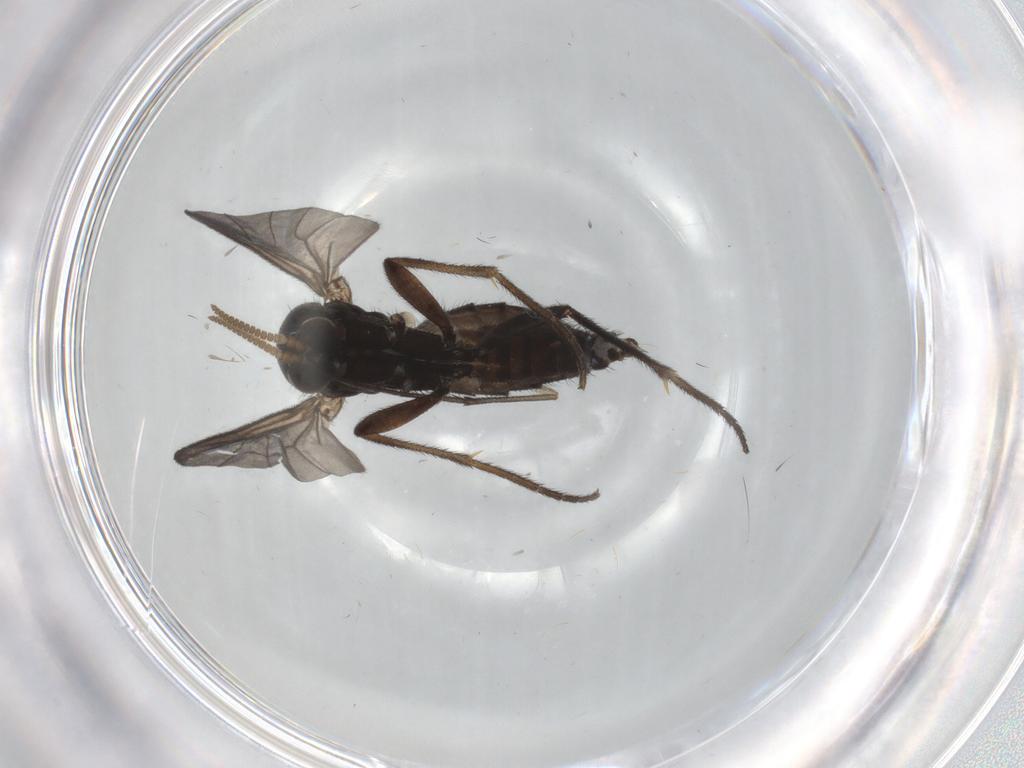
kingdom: Animalia
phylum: Arthropoda
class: Insecta
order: Diptera
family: Mycetophilidae
